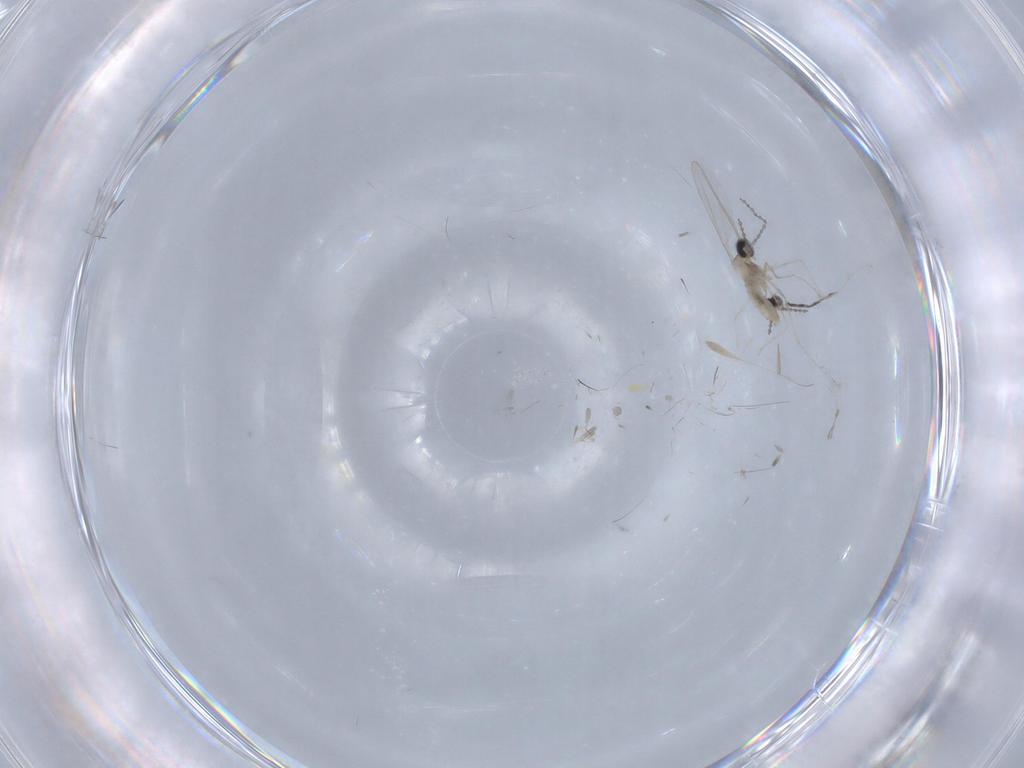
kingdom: Animalia
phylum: Arthropoda
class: Insecta
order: Diptera
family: Cecidomyiidae
